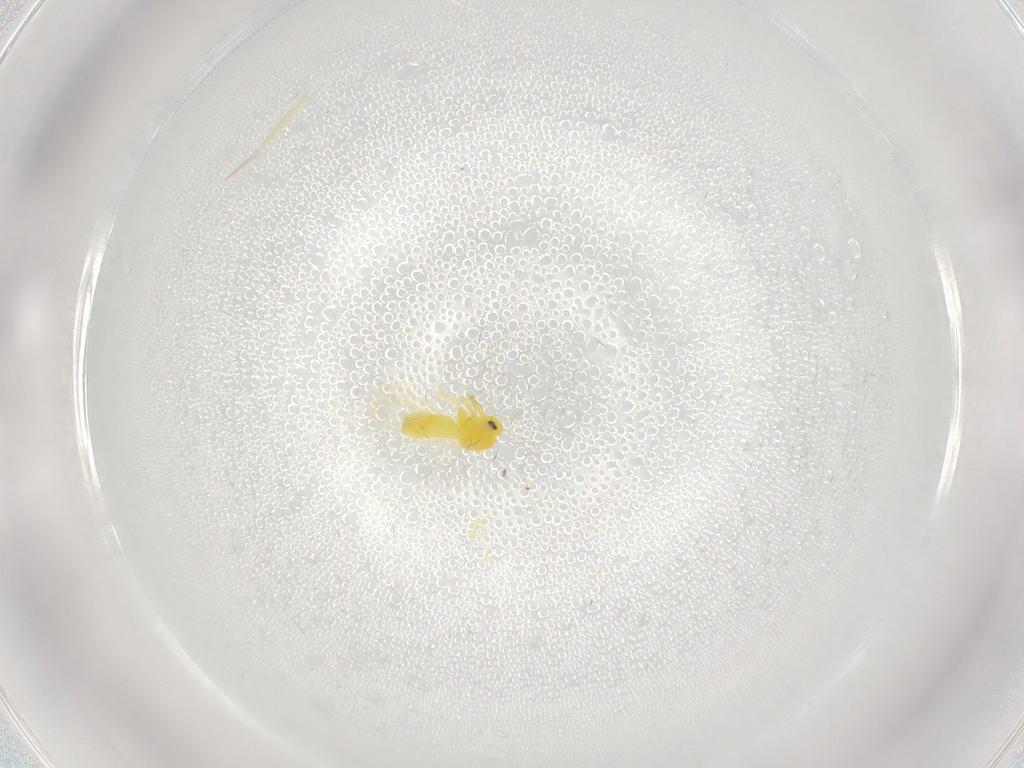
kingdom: Animalia
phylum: Arthropoda
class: Insecta
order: Hemiptera
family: Aleyrodidae
